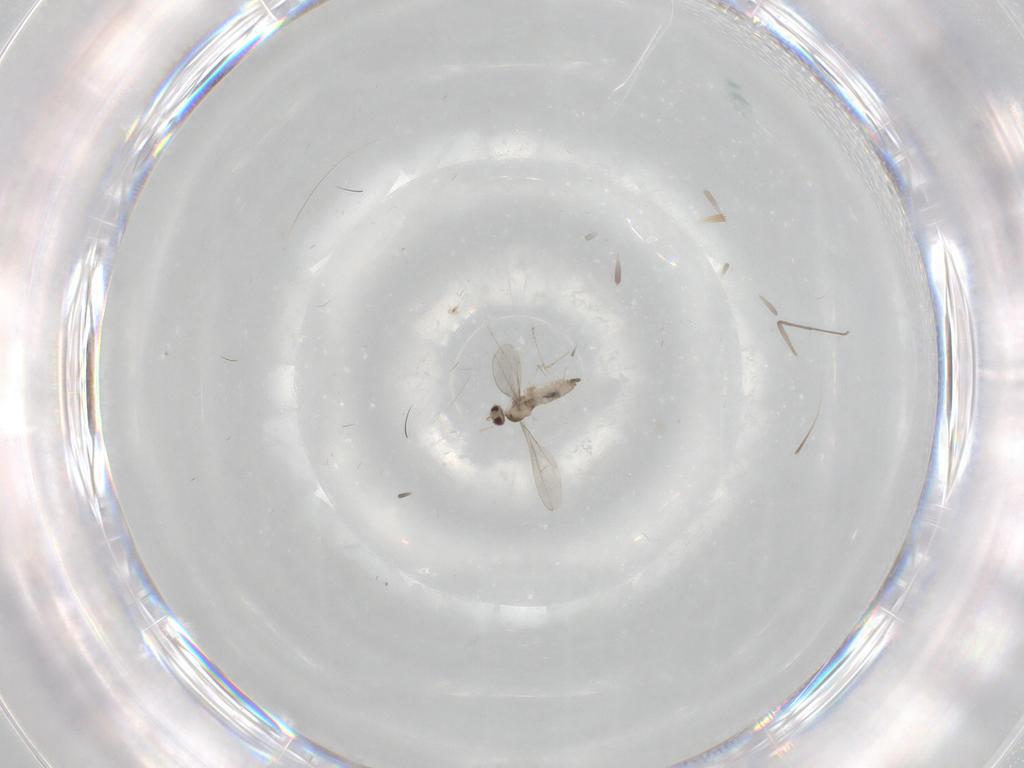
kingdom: Animalia
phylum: Arthropoda
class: Insecta
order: Diptera
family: Cecidomyiidae
